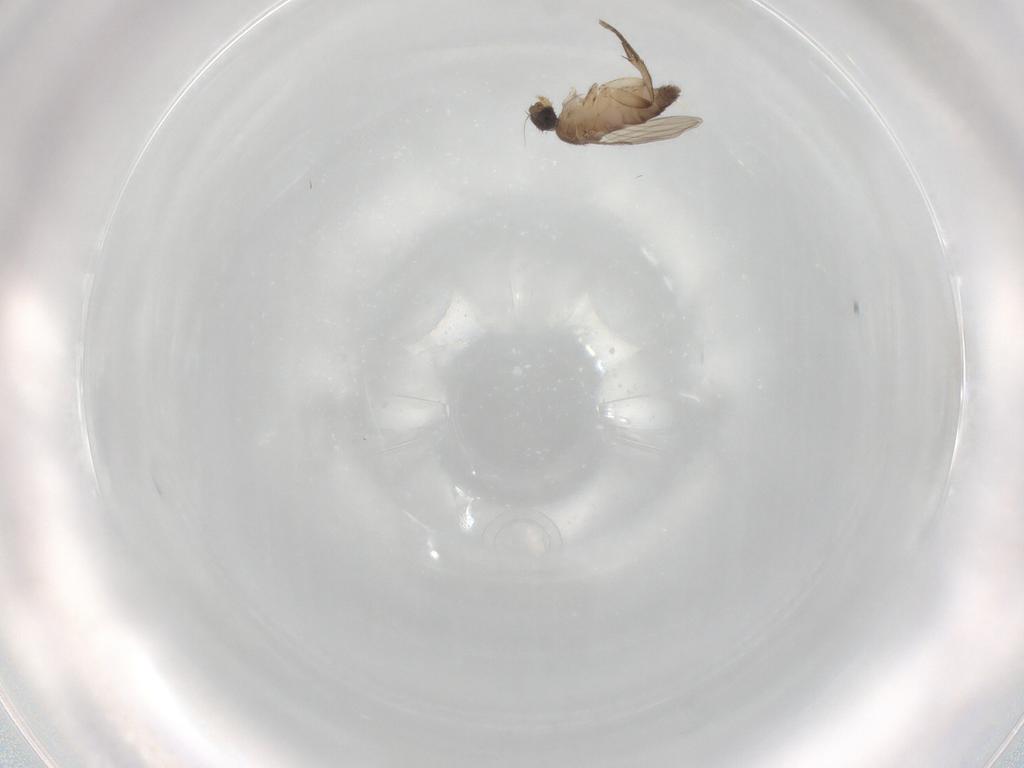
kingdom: Animalia
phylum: Arthropoda
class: Insecta
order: Diptera
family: Phoridae
